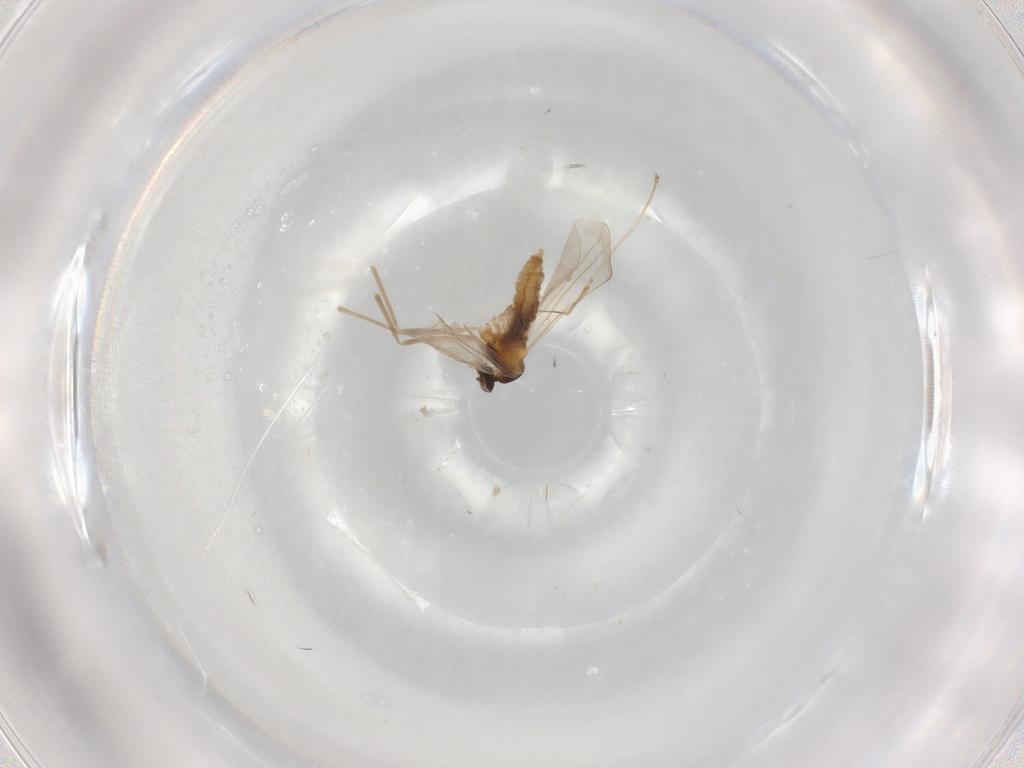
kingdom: Animalia
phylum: Arthropoda
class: Insecta
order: Diptera
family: Cecidomyiidae
